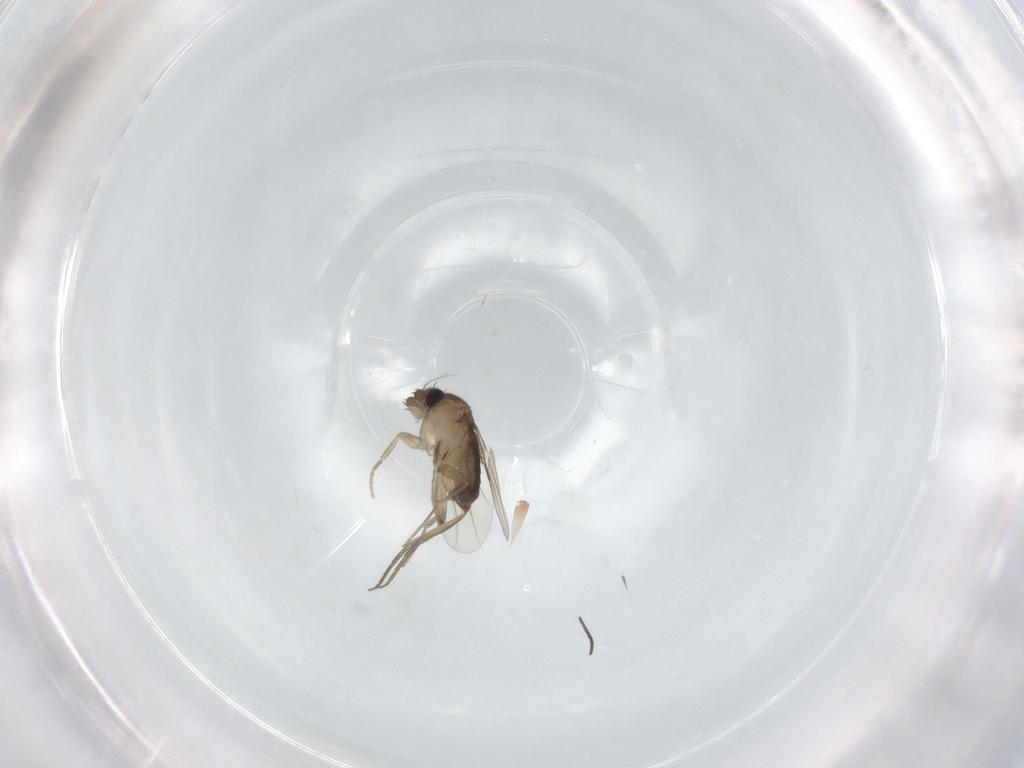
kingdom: Animalia
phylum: Arthropoda
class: Insecta
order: Diptera
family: Phoridae
